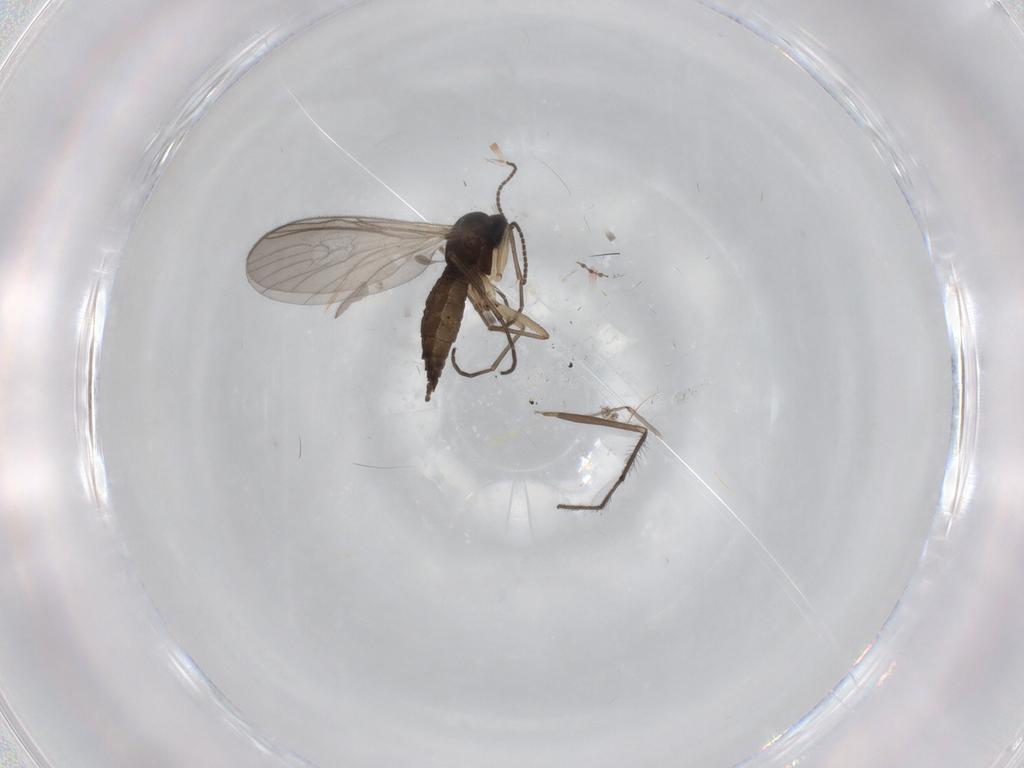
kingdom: Animalia
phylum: Arthropoda
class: Insecta
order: Diptera
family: Sciaridae
